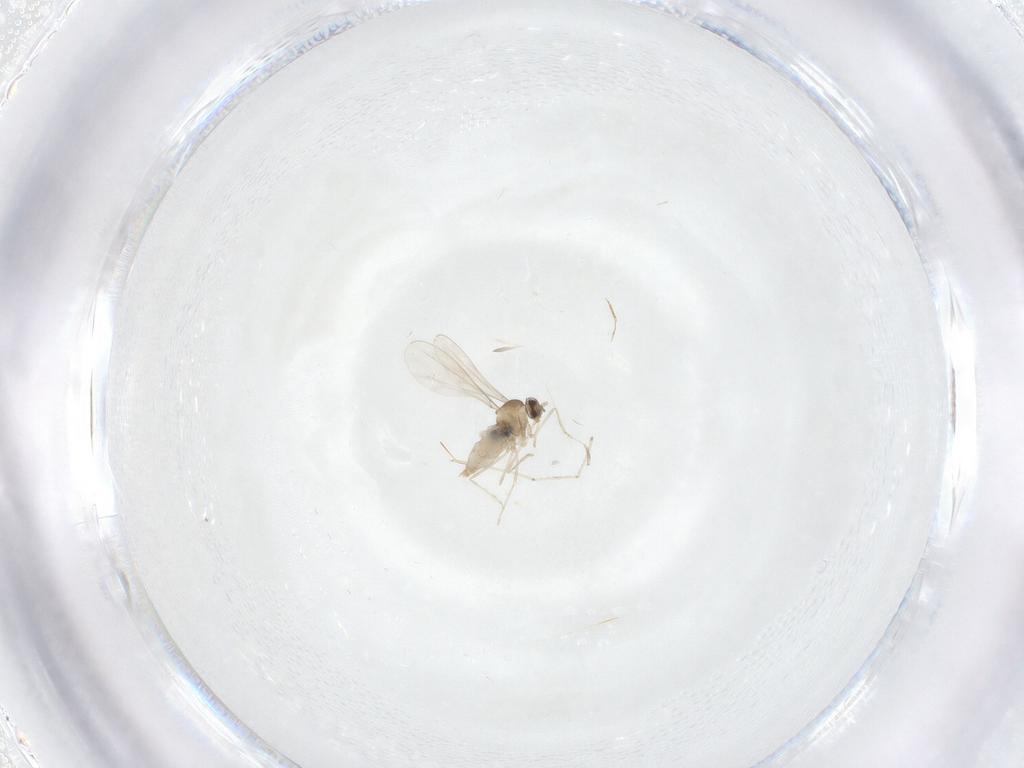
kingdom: Animalia
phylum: Arthropoda
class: Insecta
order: Diptera
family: Cecidomyiidae
